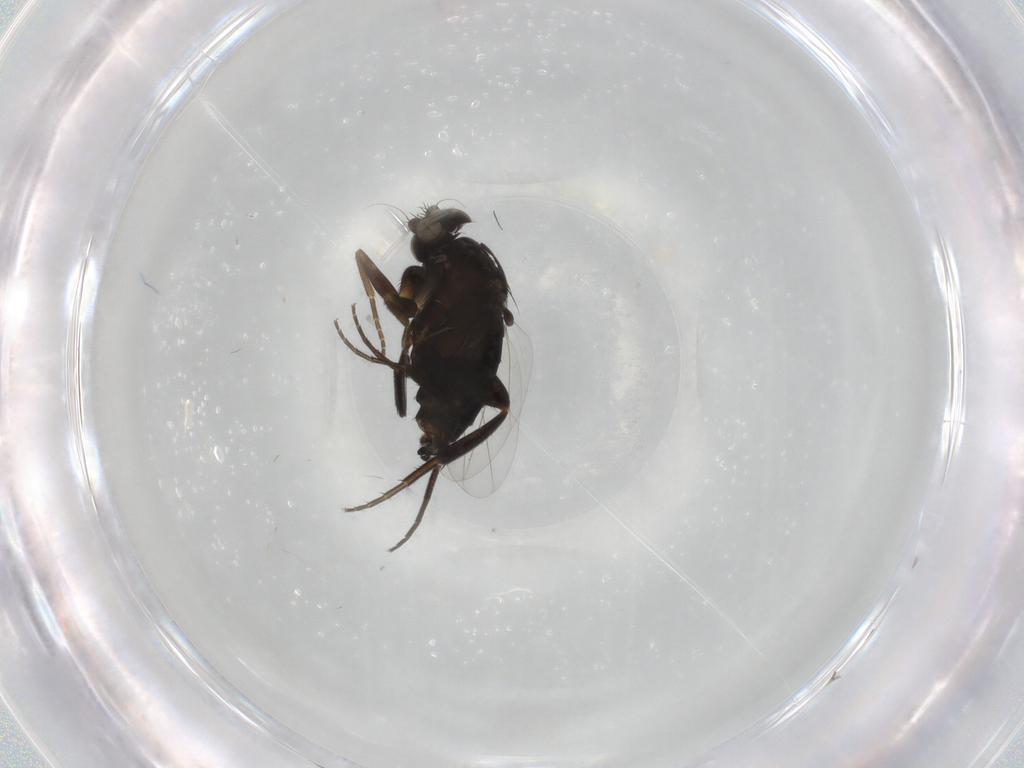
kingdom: Animalia
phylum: Arthropoda
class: Insecta
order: Diptera
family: Phoridae
